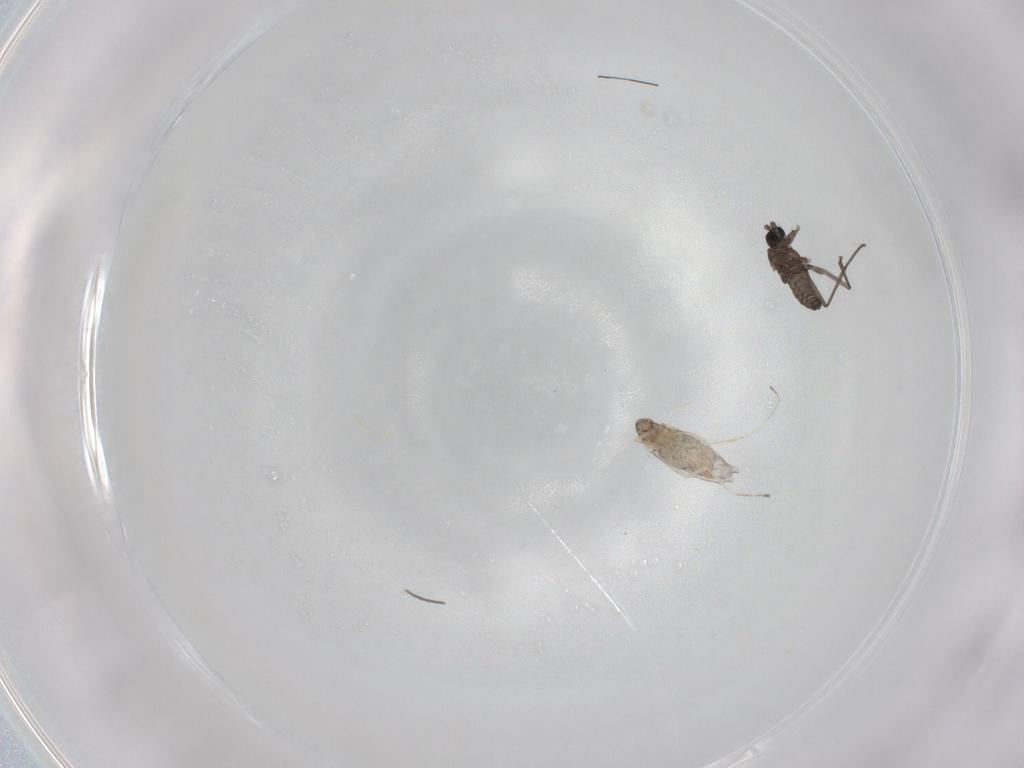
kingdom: Animalia
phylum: Arthropoda
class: Insecta
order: Diptera
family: Cecidomyiidae
